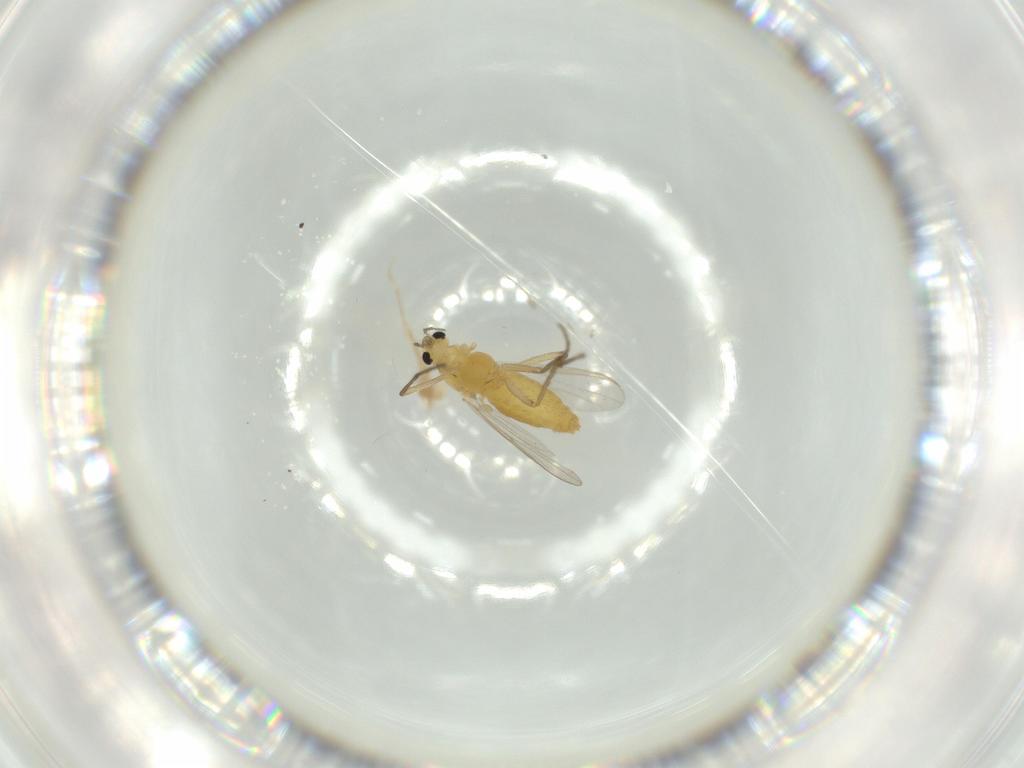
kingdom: Animalia
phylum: Arthropoda
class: Insecta
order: Diptera
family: Chironomidae
